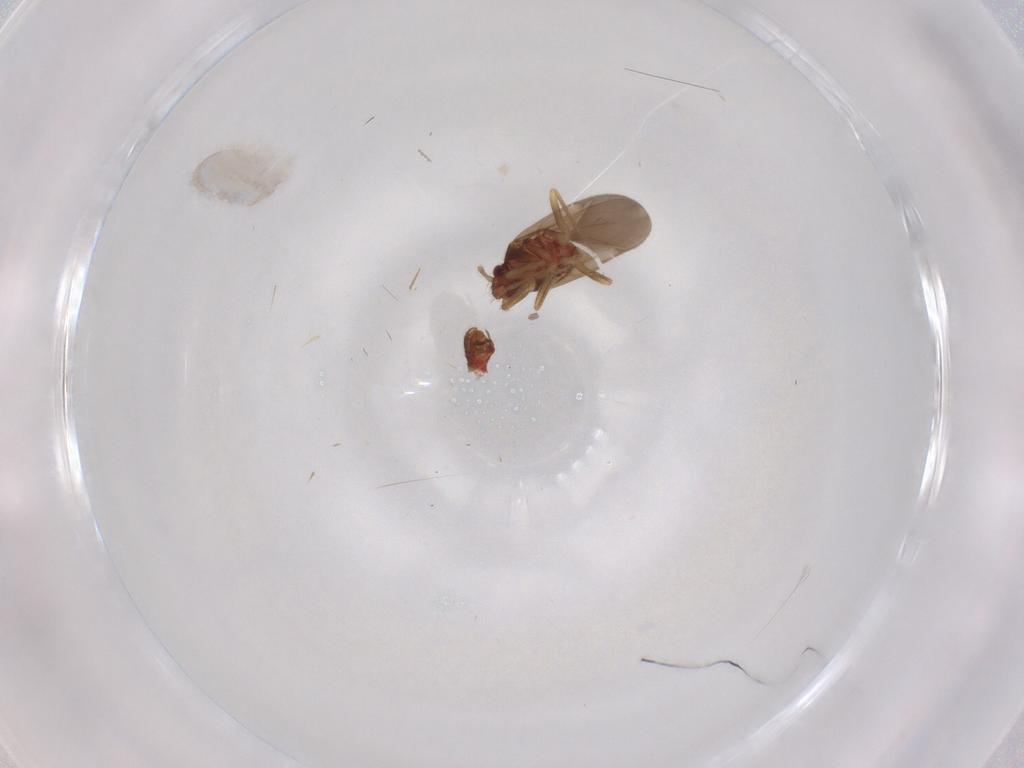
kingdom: Animalia
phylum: Arthropoda
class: Insecta
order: Hemiptera
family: Ceratocombidae
